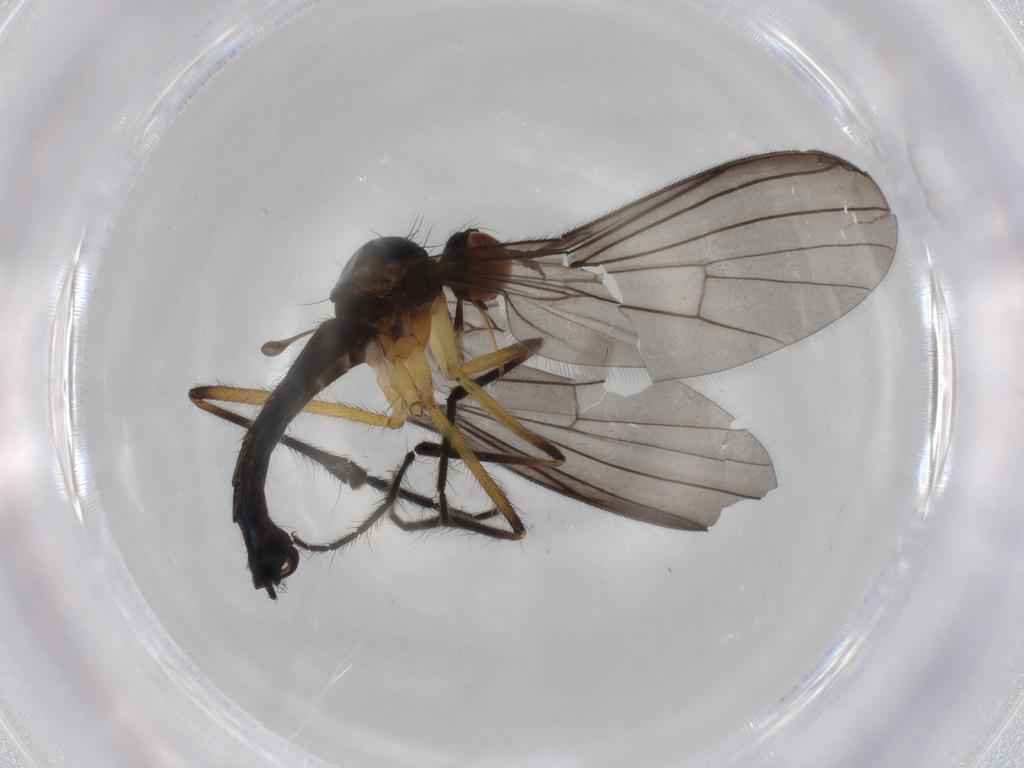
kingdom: Animalia
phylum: Arthropoda
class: Insecta
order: Diptera
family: Empididae
